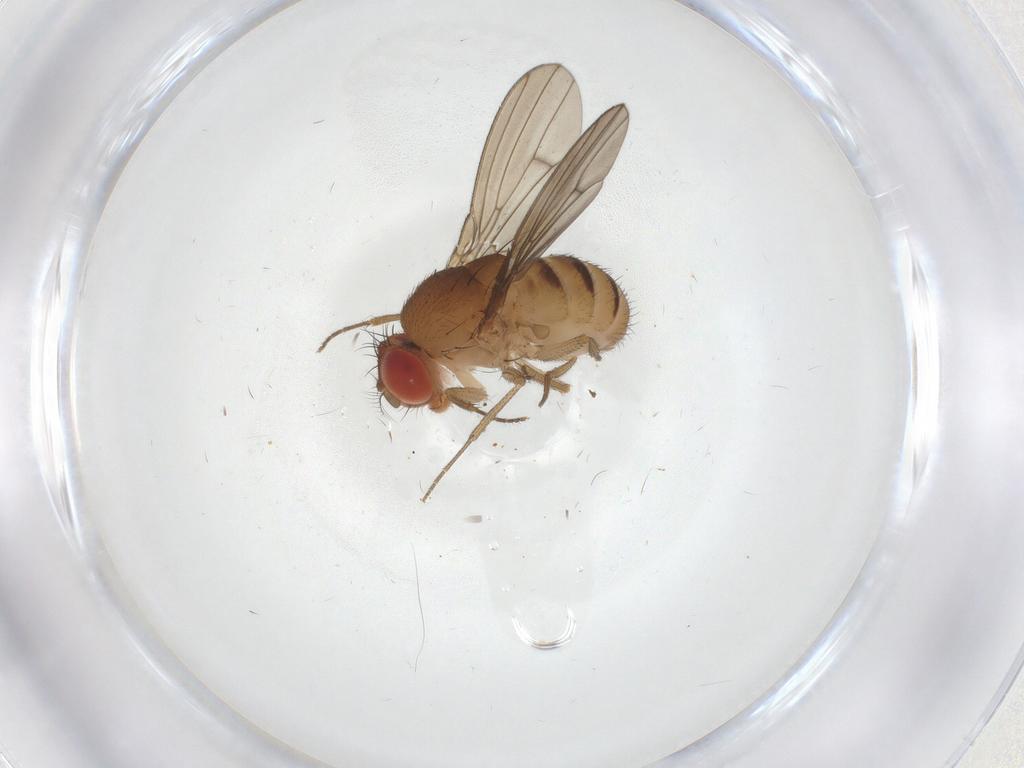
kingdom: Animalia
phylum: Arthropoda
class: Insecta
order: Diptera
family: Drosophilidae
